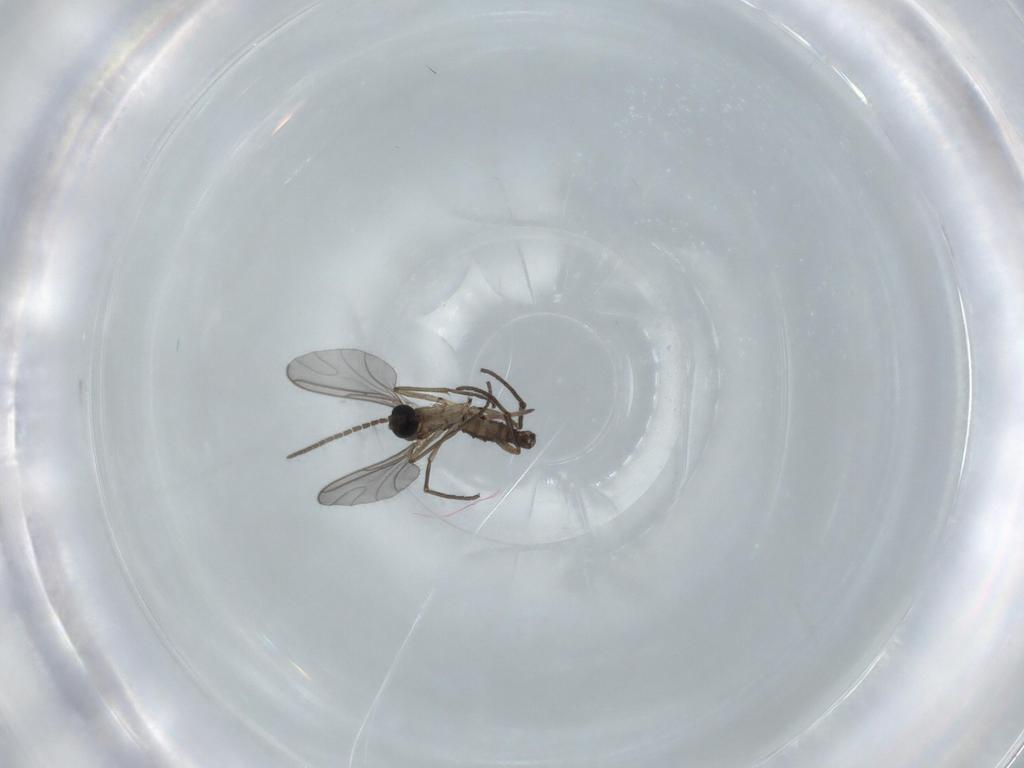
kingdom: Animalia
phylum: Arthropoda
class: Insecta
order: Diptera
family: Sciaridae
